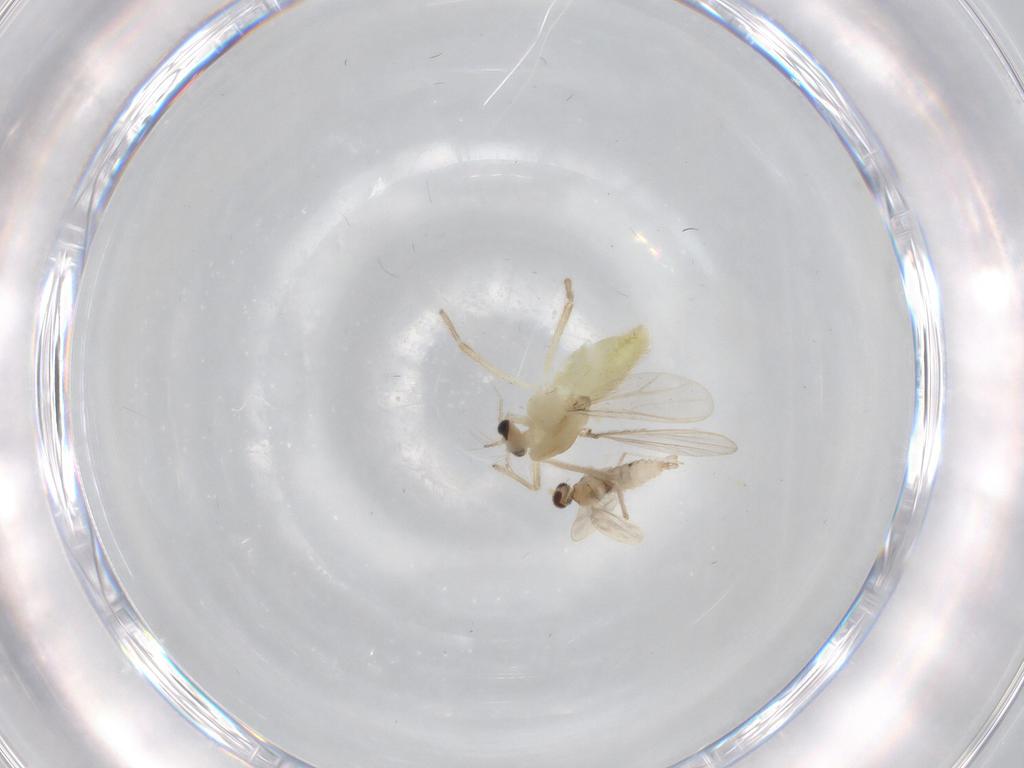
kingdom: Animalia
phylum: Arthropoda
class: Insecta
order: Diptera
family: Chironomidae
